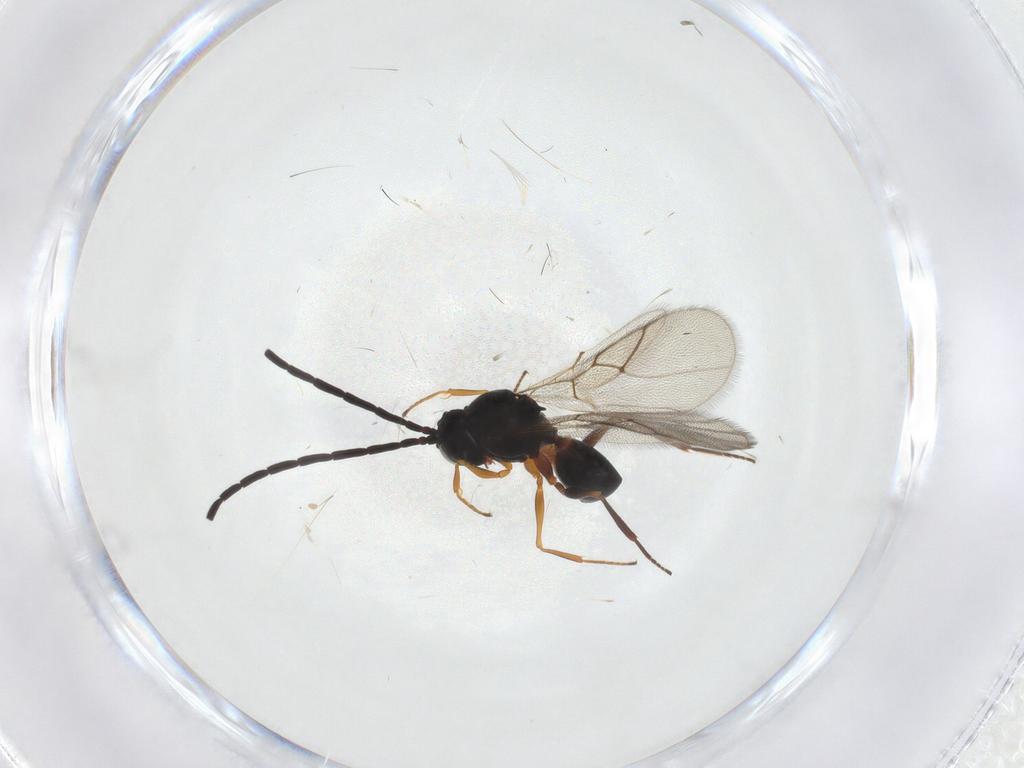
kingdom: Animalia
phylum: Arthropoda
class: Insecta
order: Hymenoptera
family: Figitidae
